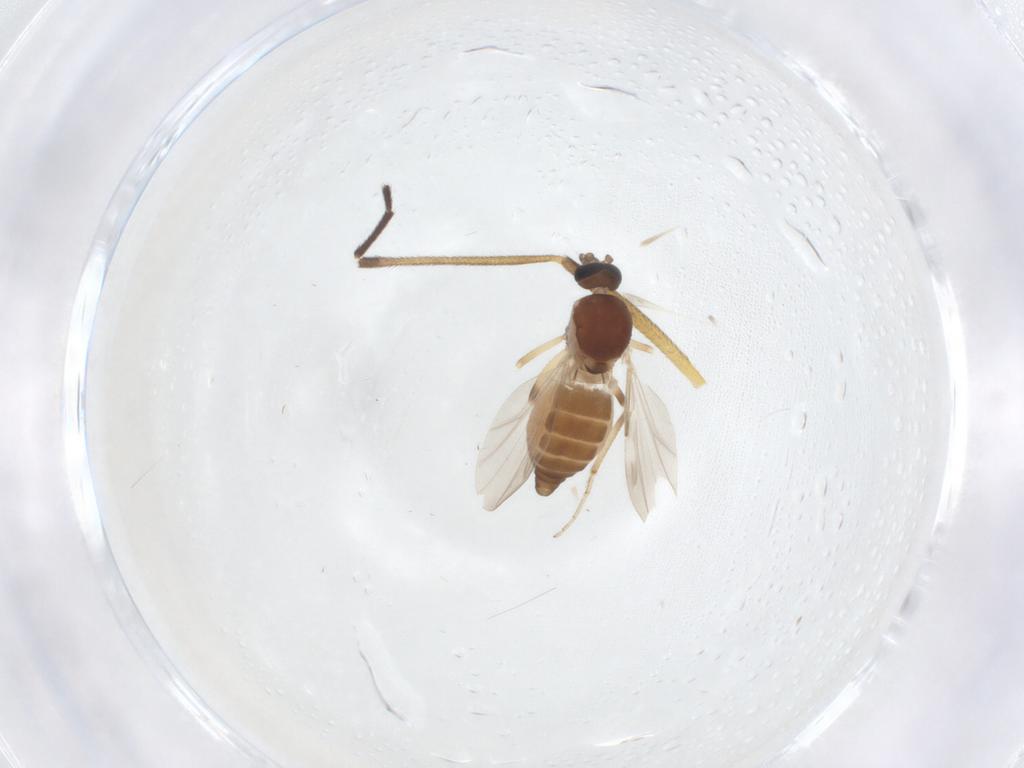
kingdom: Animalia
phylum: Arthropoda
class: Insecta
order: Diptera
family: Ceratopogonidae
